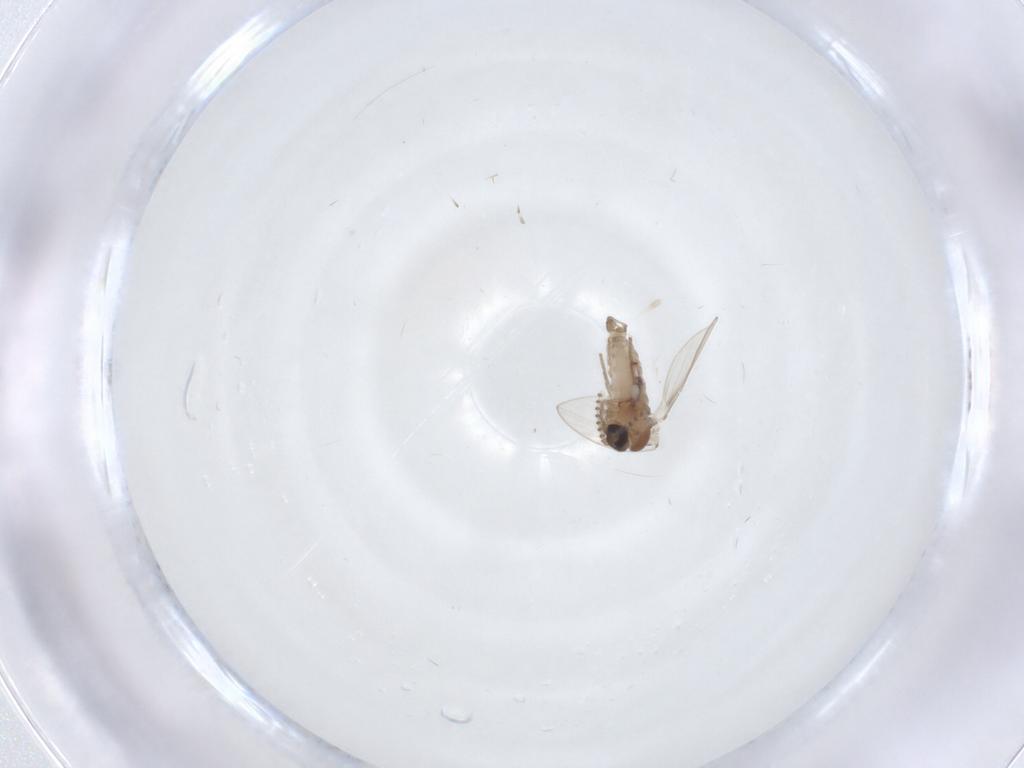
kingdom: Animalia
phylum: Arthropoda
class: Insecta
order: Diptera
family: Psychodidae
